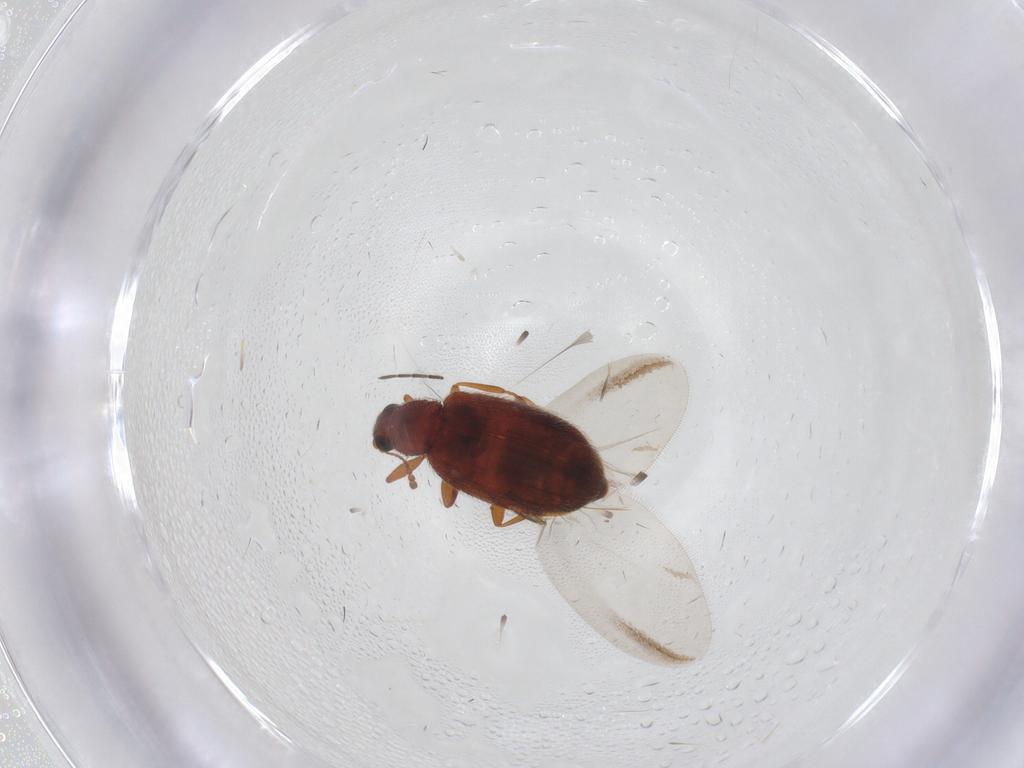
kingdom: Animalia
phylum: Arthropoda
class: Insecta
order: Coleoptera
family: Latridiidae
